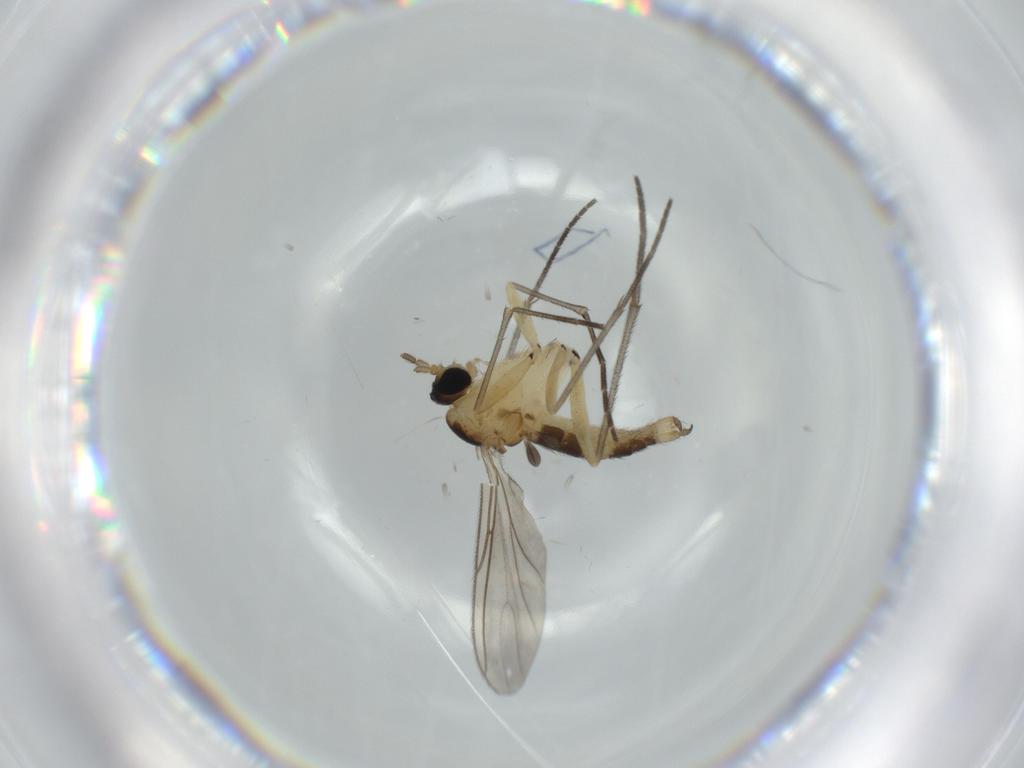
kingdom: Animalia
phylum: Arthropoda
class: Insecta
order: Diptera
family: Sciaridae
